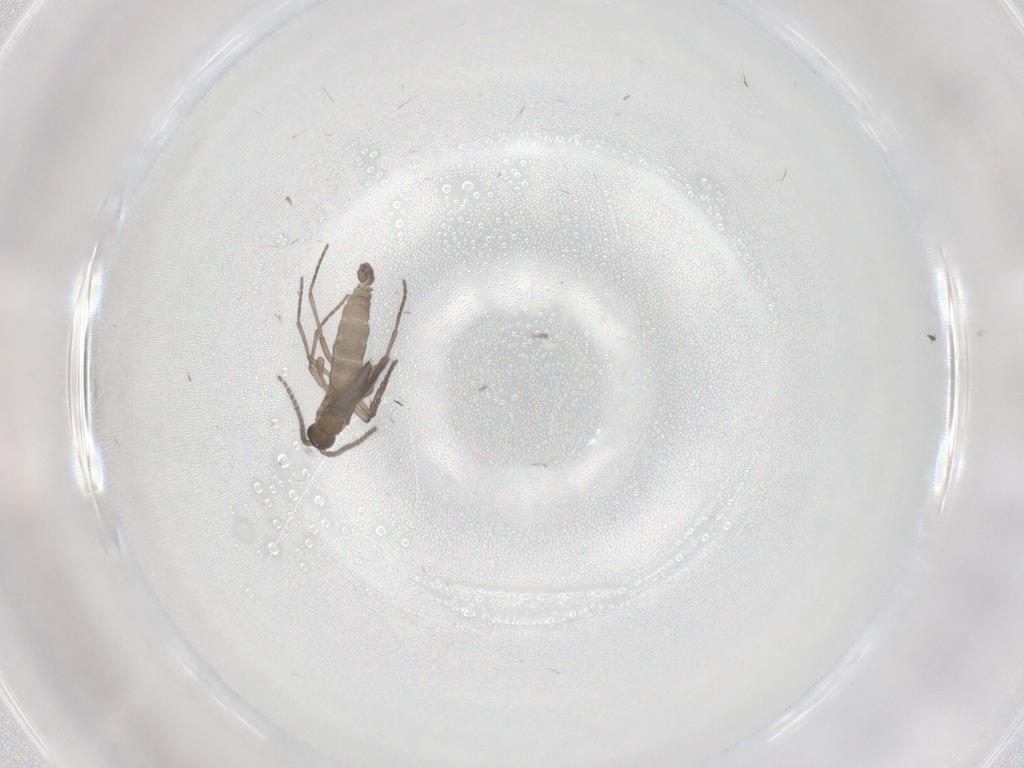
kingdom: Animalia
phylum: Arthropoda
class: Insecta
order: Diptera
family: Sciaridae
